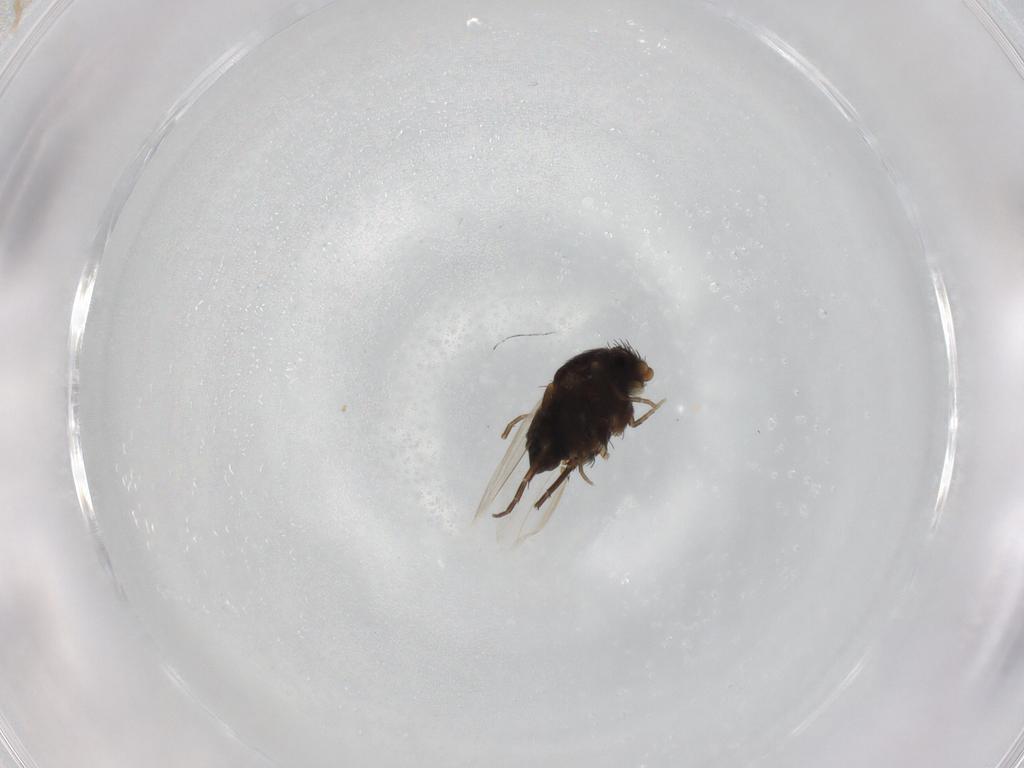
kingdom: Animalia
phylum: Arthropoda
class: Insecta
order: Diptera
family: Phoridae
